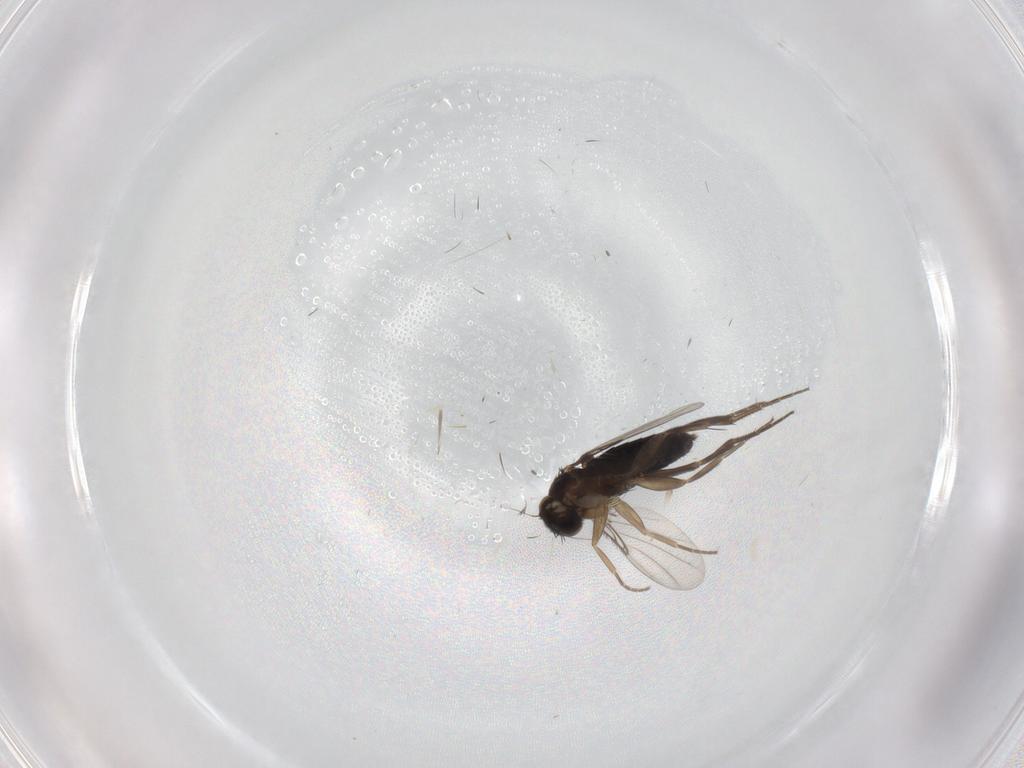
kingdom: Animalia
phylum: Arthropoda
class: Insecta
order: Diptera
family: Phoridae
